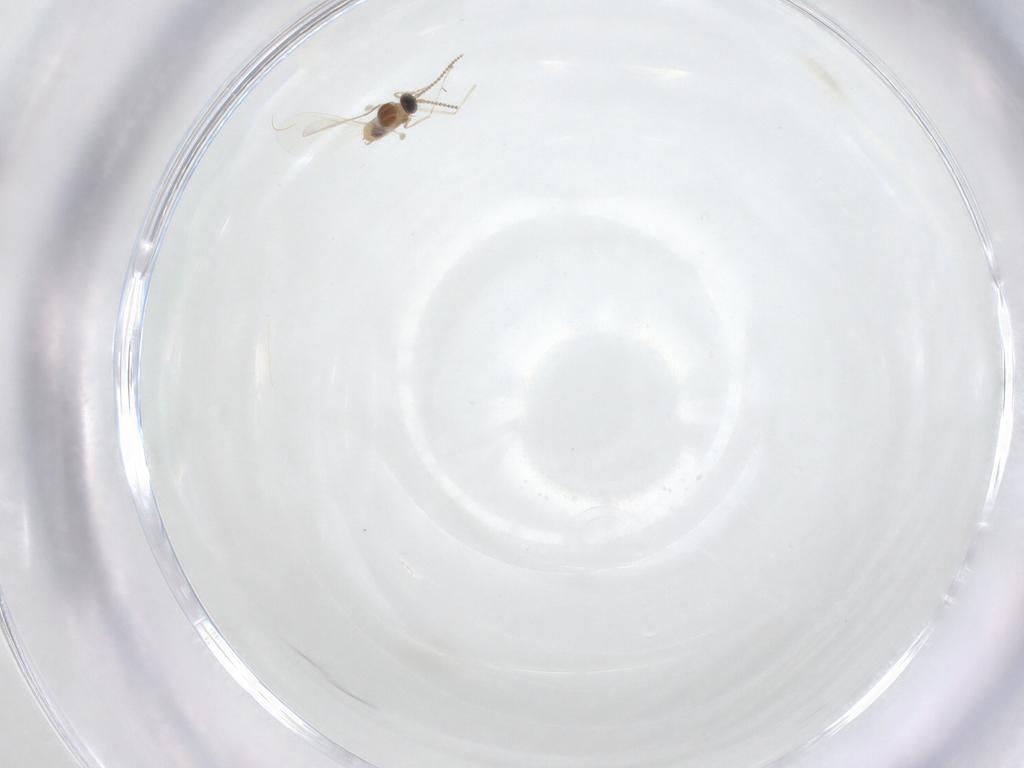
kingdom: Animalia
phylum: Arthropoda
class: Insecta
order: Diptera
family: Cecidomyiidae
